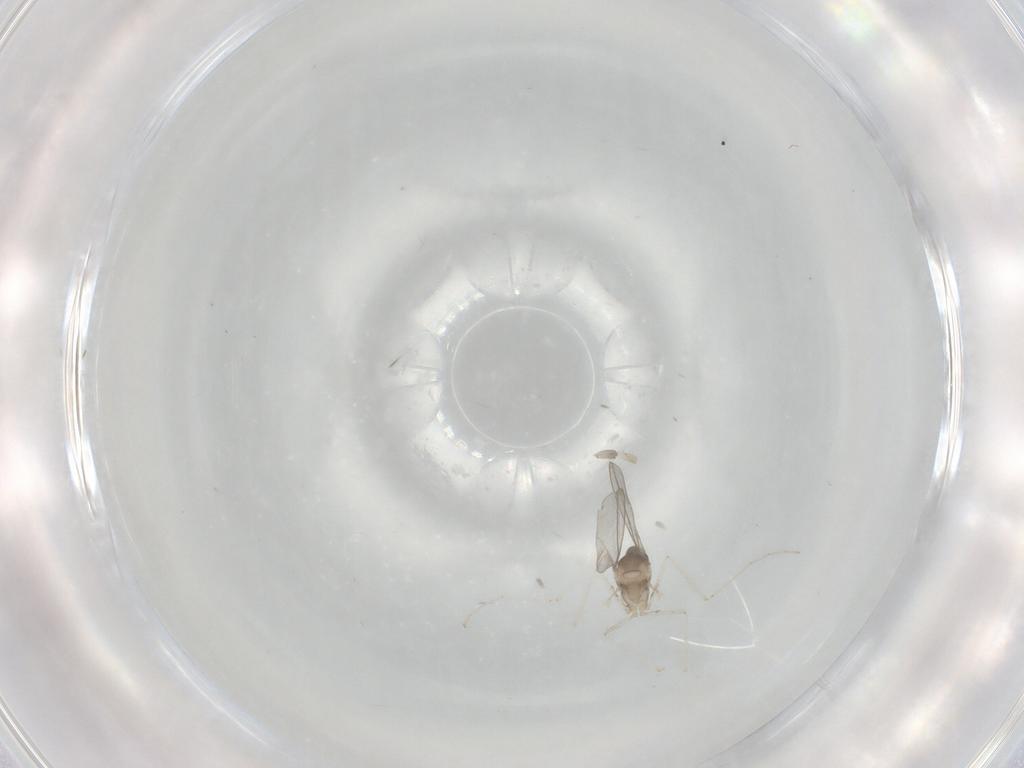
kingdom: Animalia
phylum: Arthropoda
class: Insecta
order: Diptera
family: Cecidomyiidae
